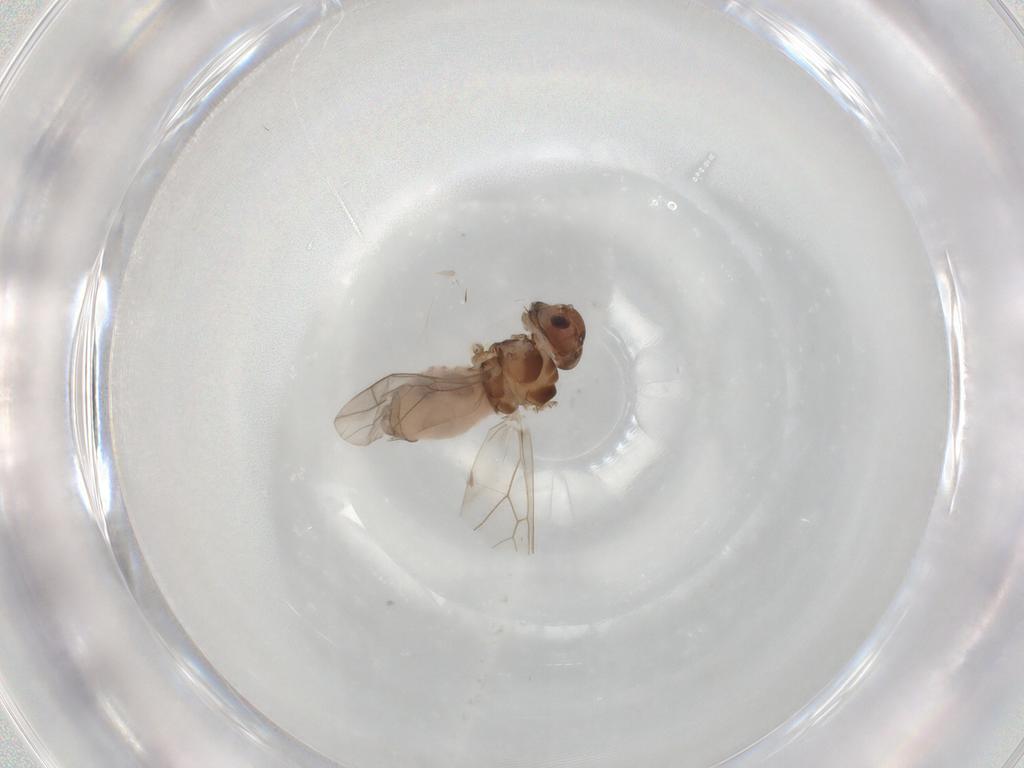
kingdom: Animalia
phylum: Arthropoda
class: Insecta
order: Psocodea
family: Peripsocidae
